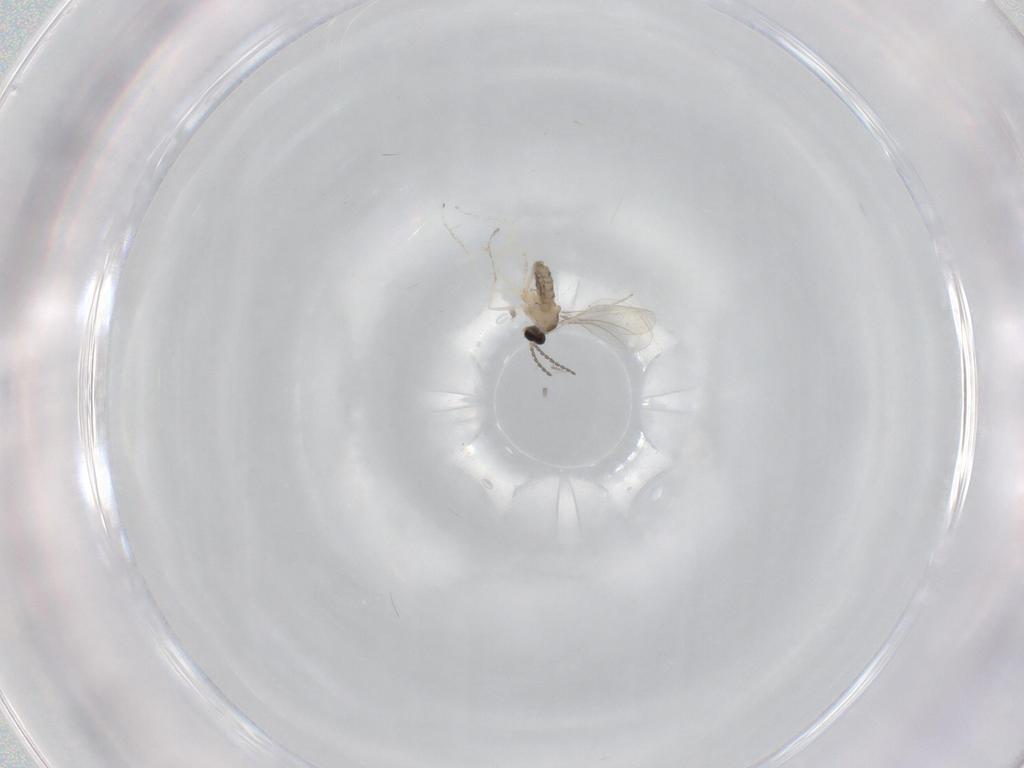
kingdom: Animalia
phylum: Arthropoda
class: Insecta
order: Diptera
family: Cecidomyiidae
